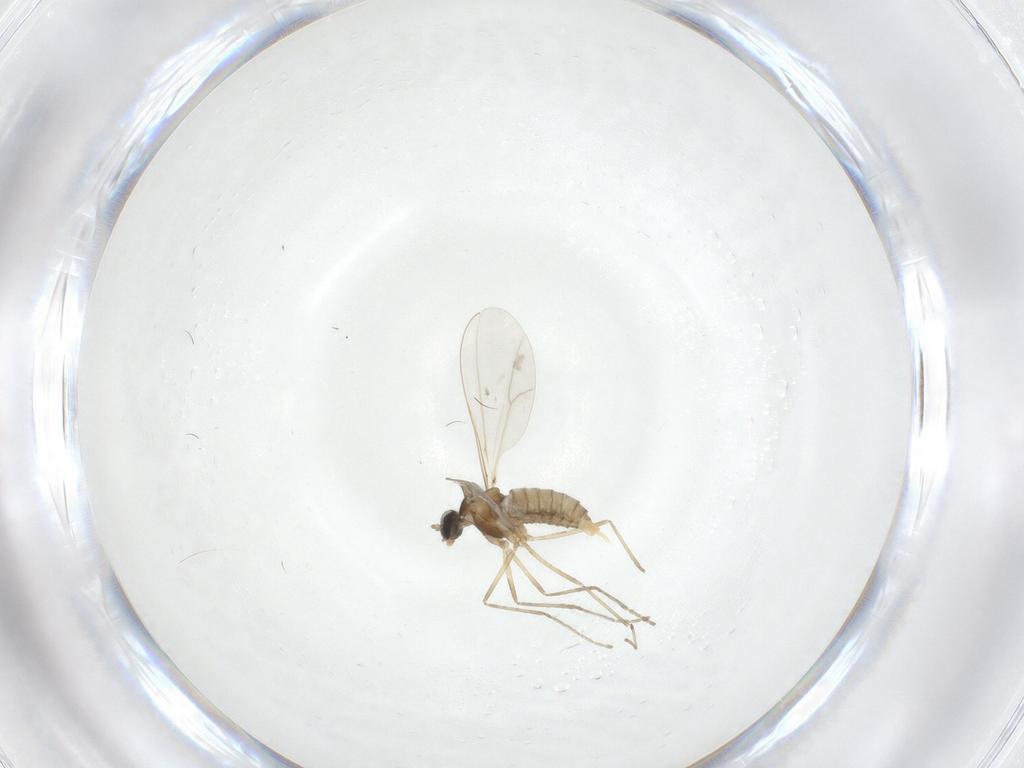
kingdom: Animalia
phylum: Arthropoda
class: Insecta
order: Diptera
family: Cecidomyiidae
